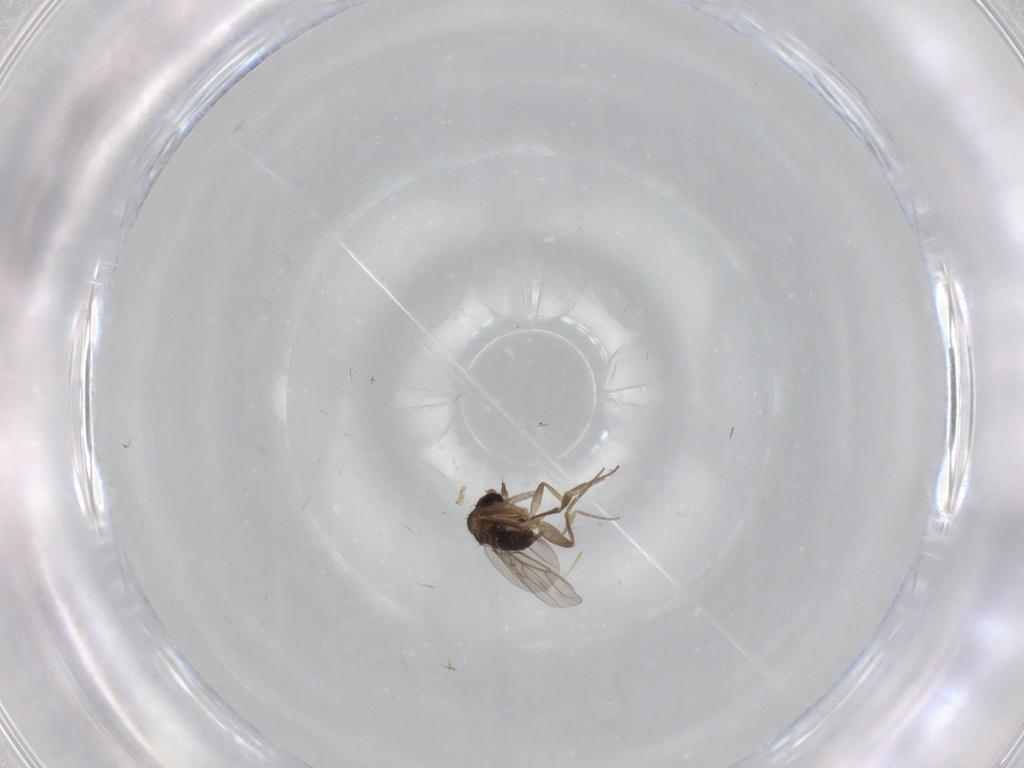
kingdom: Animalia
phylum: Arthropoda
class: Insecta
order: Diptera
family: Phoridae
